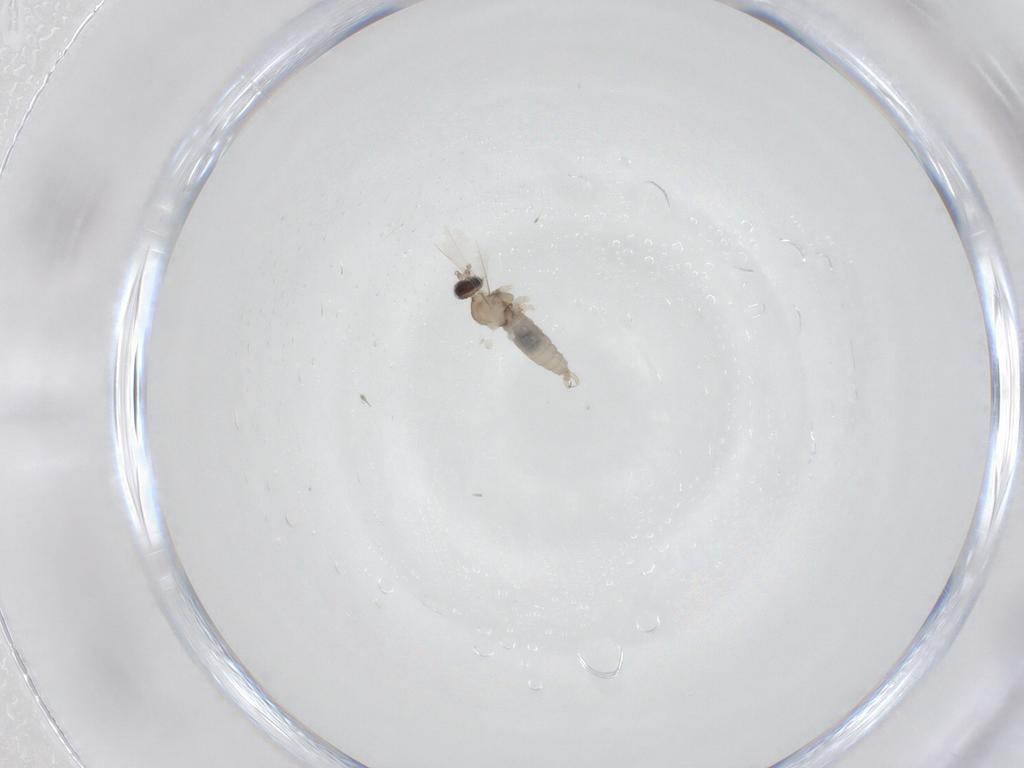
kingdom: Animalia
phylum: Arthropoda
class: Insecta
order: Diptera
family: Cecidomyiidae
